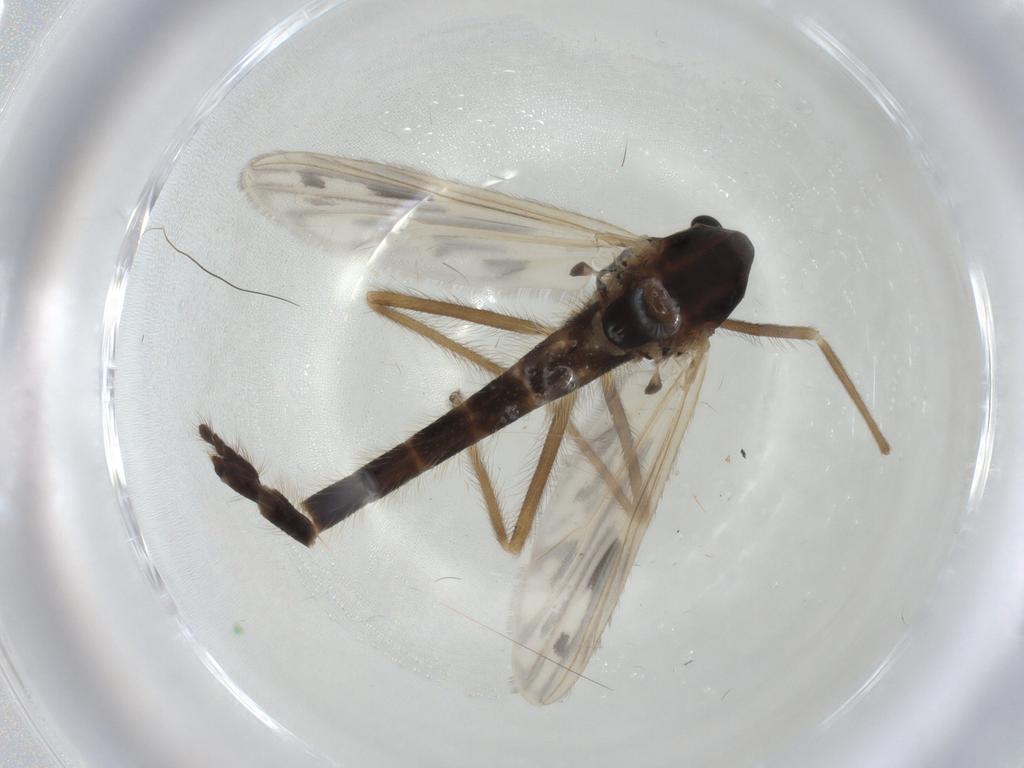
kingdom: Animalia
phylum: Arthropoda
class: Insecta
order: Diptera
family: Chironomidae
